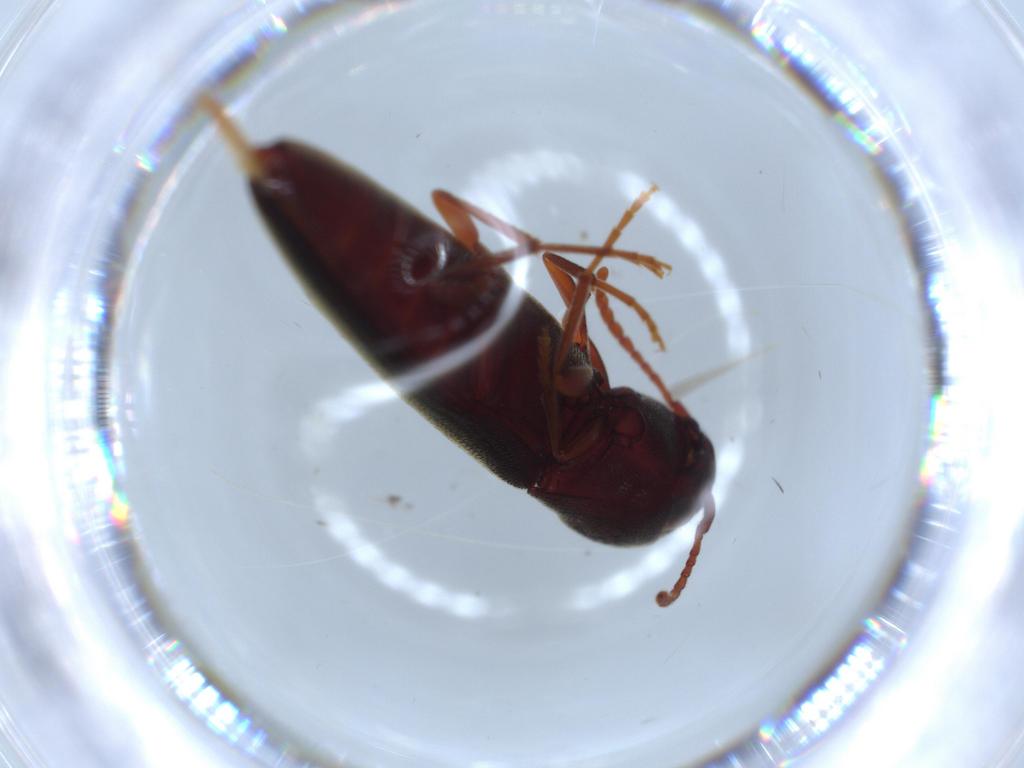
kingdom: Animalia
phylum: Arthropoda
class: Insecta
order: Coleoptera
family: Eucnemidae
